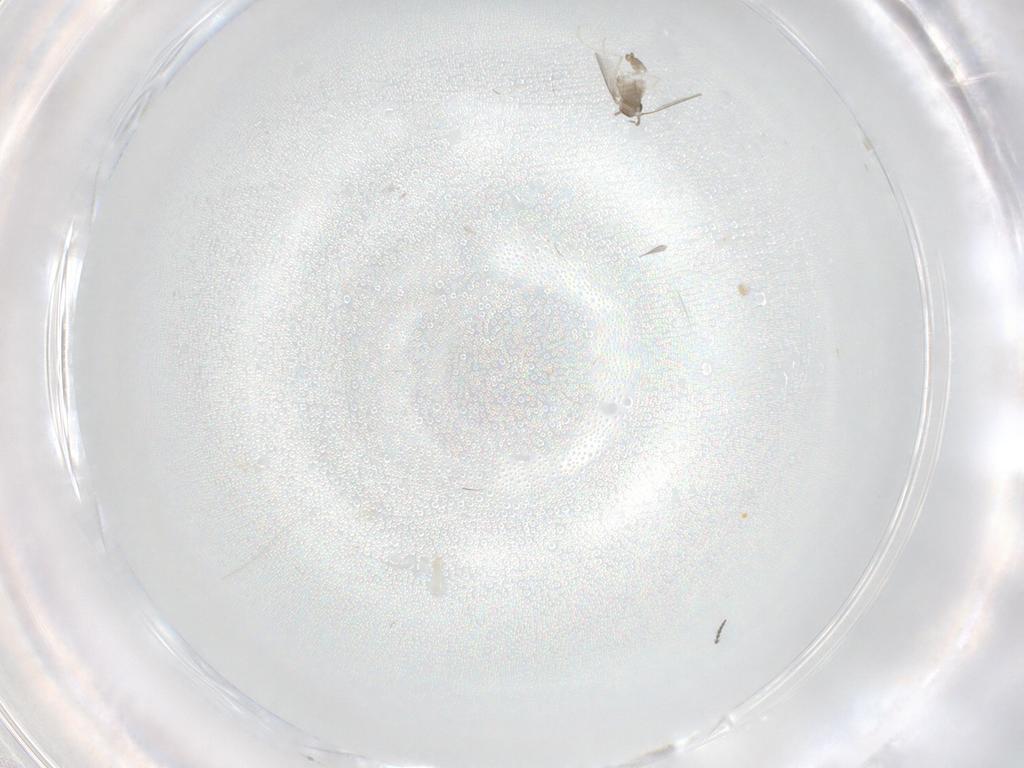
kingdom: Animalia
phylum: Arthropoda
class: Insecta
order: Diptera
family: Cecidomyiidae
